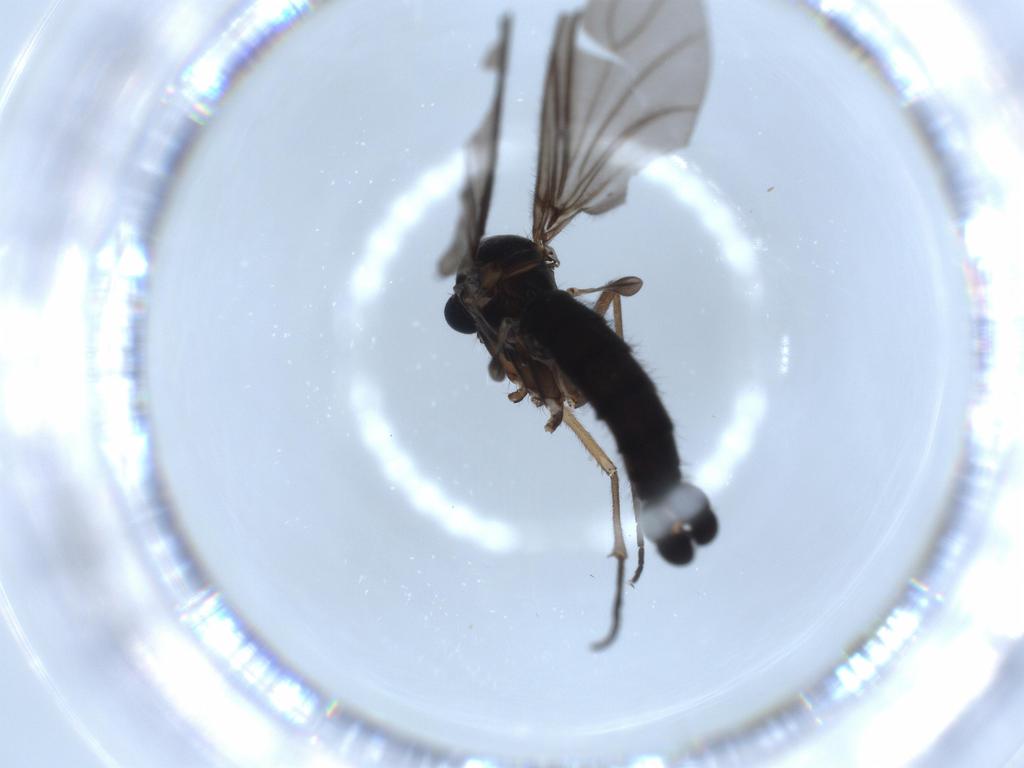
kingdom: Animalia
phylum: Arthropoda
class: Insecta
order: Diptera
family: Sciaridae
